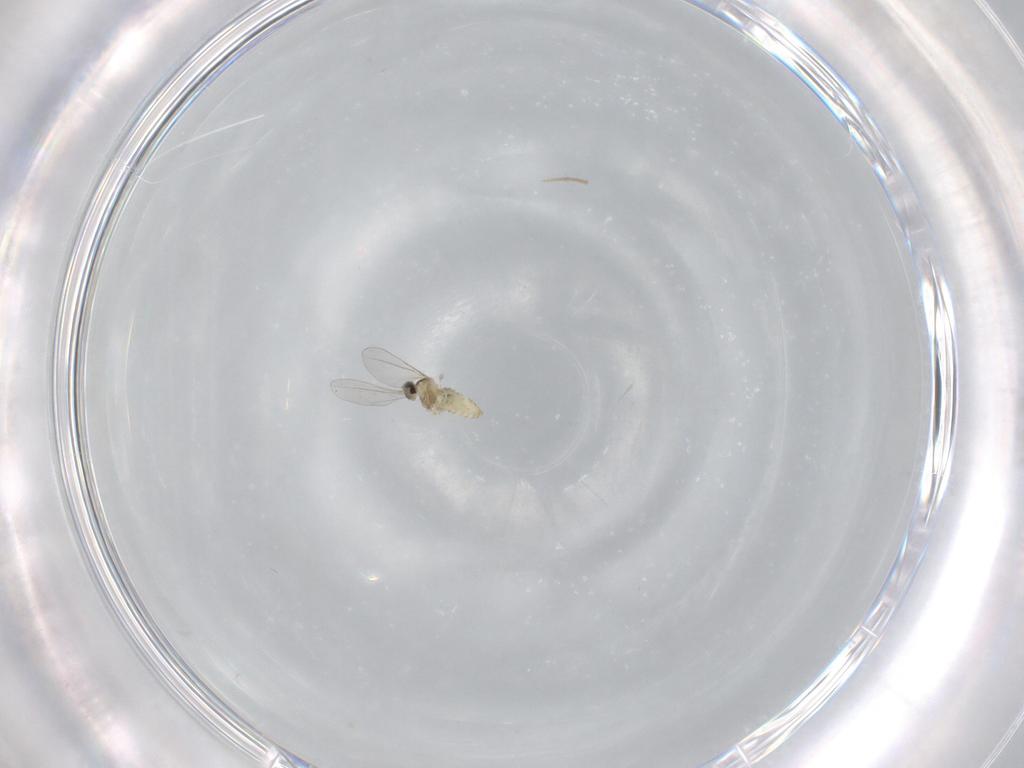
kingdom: Animalia
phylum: Arthropoda
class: Insecta
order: Diptera
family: Cecidomyiidae
